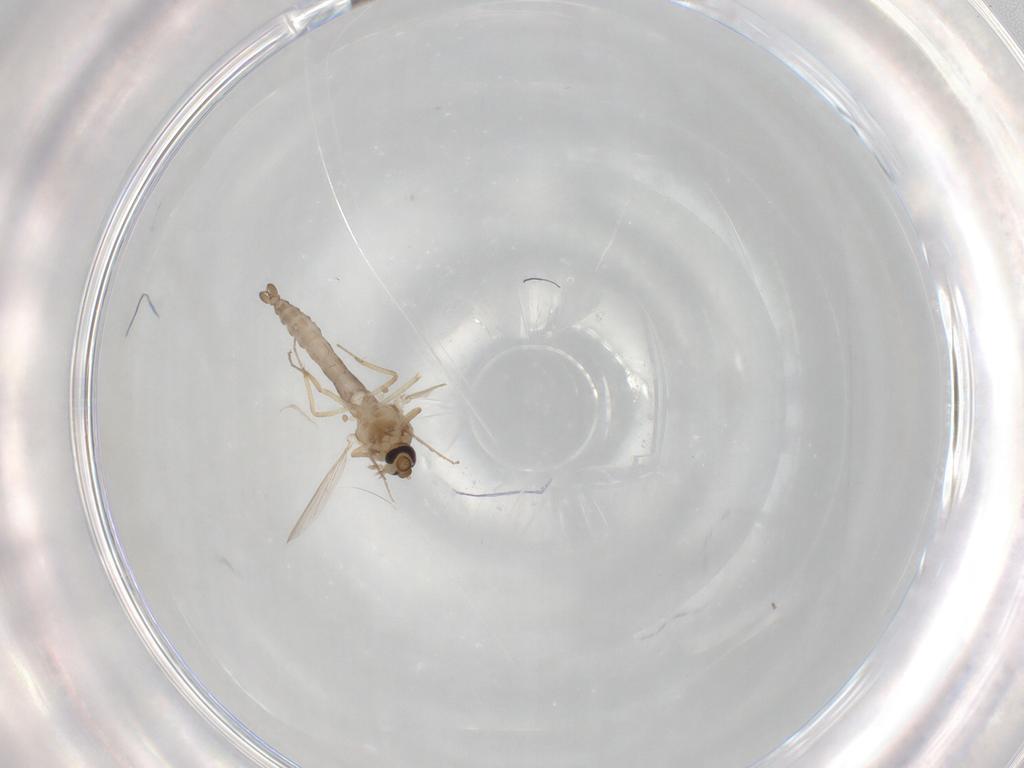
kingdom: Animalia
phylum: Arthropoda
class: Insecta
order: Diptera
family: Ceratopogonidae
